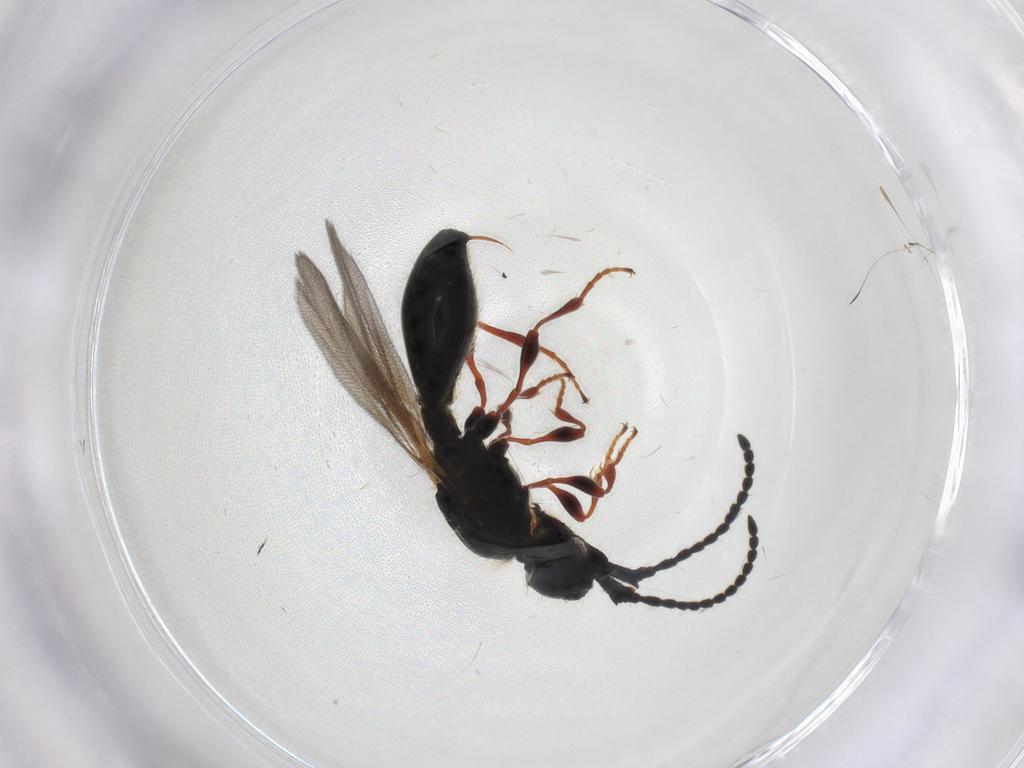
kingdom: Animalia
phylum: Arthropoda
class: Insecta
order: Hymenoptera
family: Diapriidae
